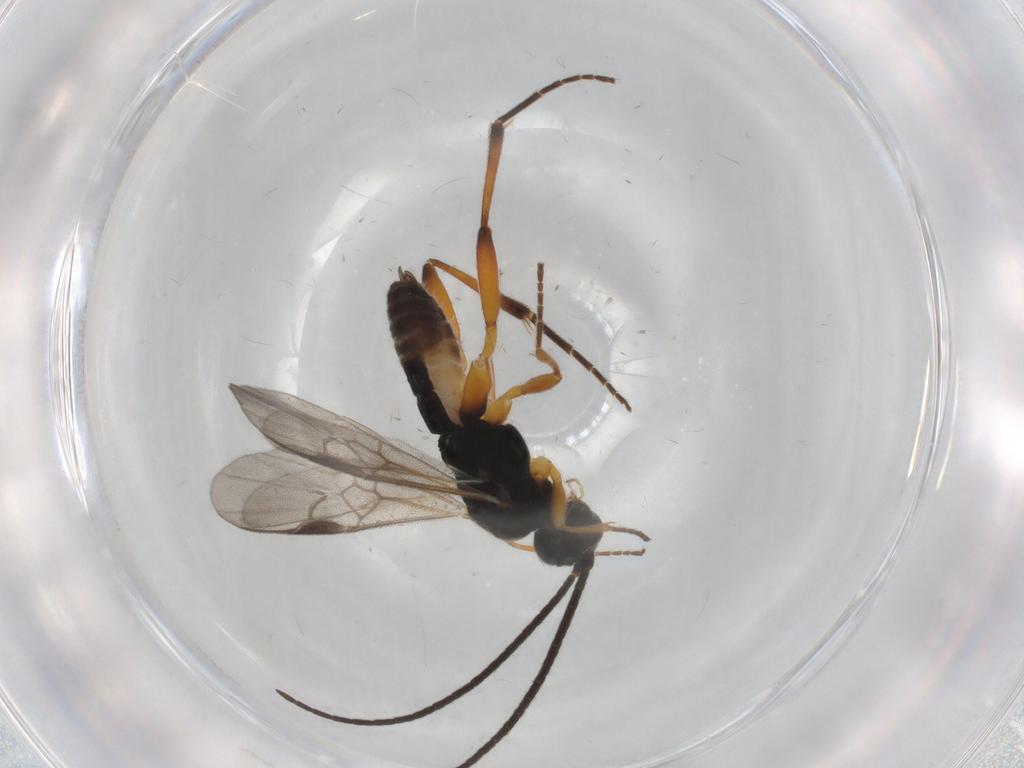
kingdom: Animalia
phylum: Arthropoda
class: Insecta
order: Hymenoptera
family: Braconidae
